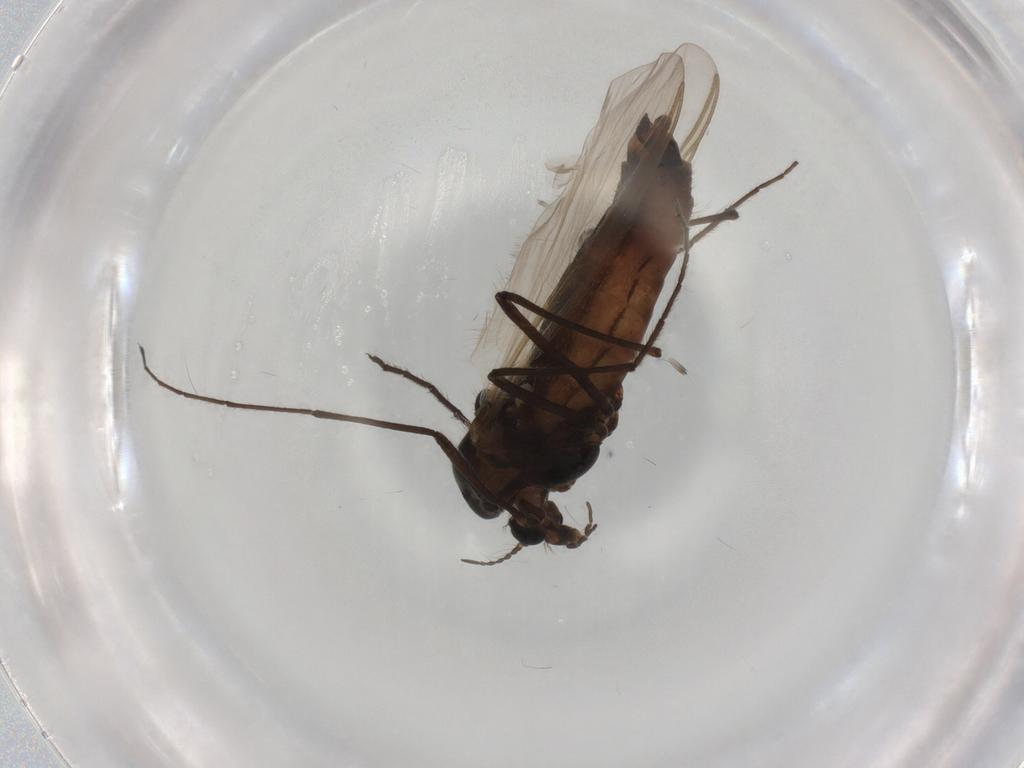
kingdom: Animalia
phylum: Arthropoda
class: Insecta
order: Diptera
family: Chironomidae
